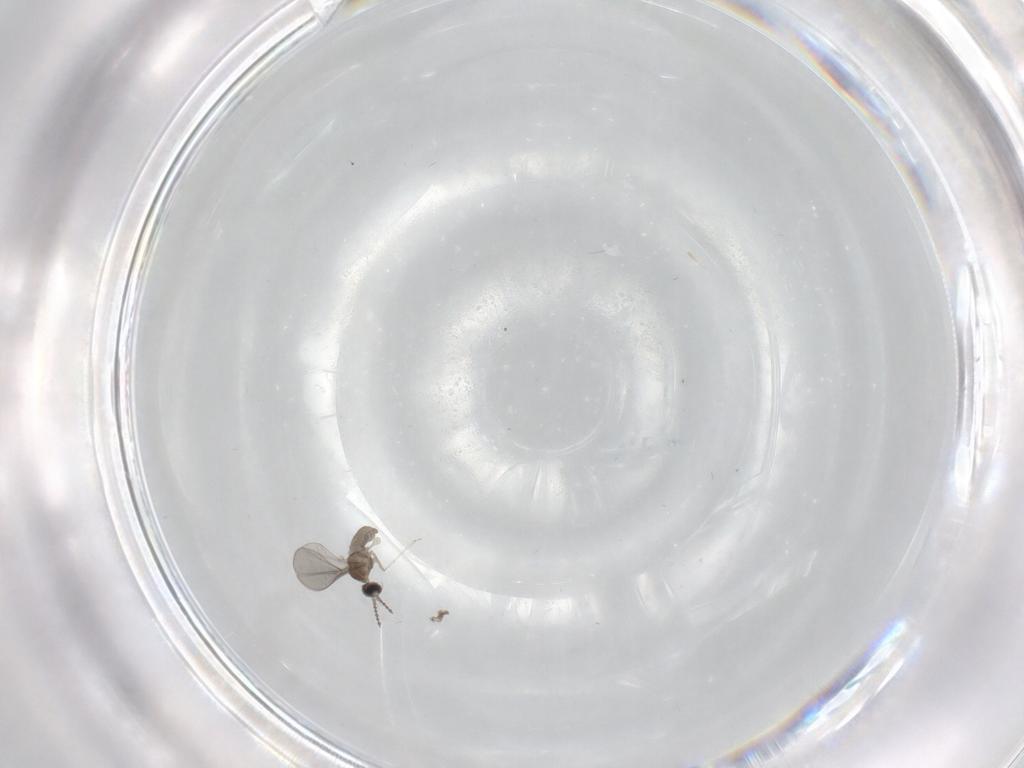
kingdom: Animalia
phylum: Arthropoda
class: Insecta
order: Diptera
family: Cecidomyiidae
